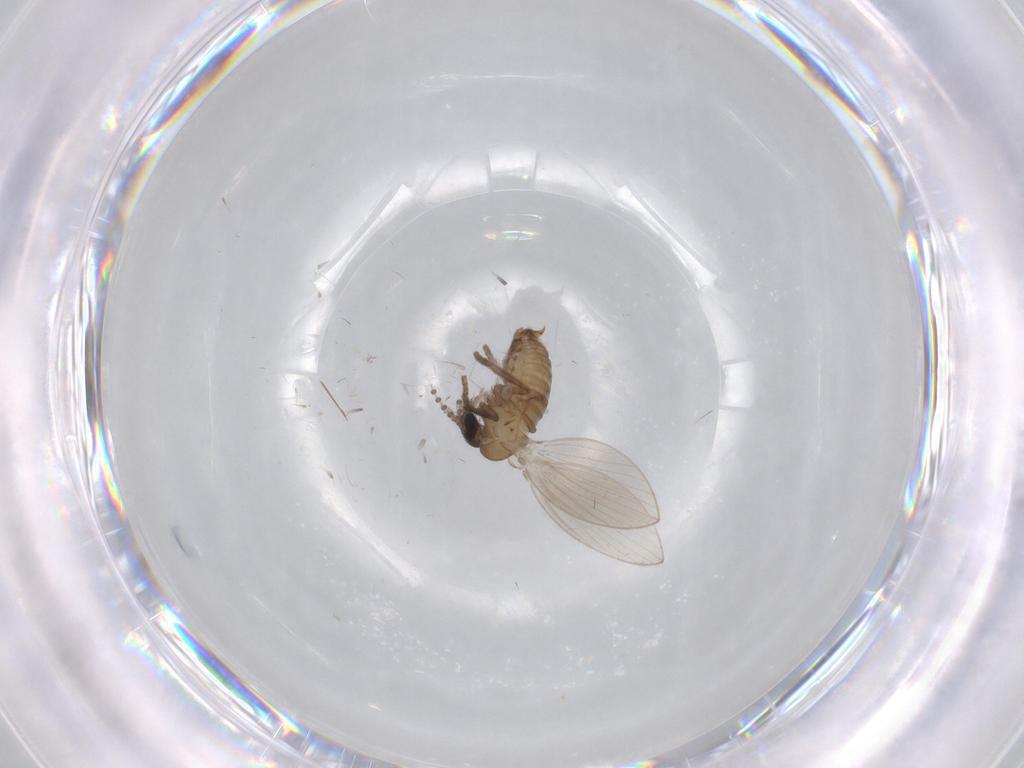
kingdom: Animalia
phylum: Arthropoda
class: Insecta
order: Diptera
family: Psychodidae
